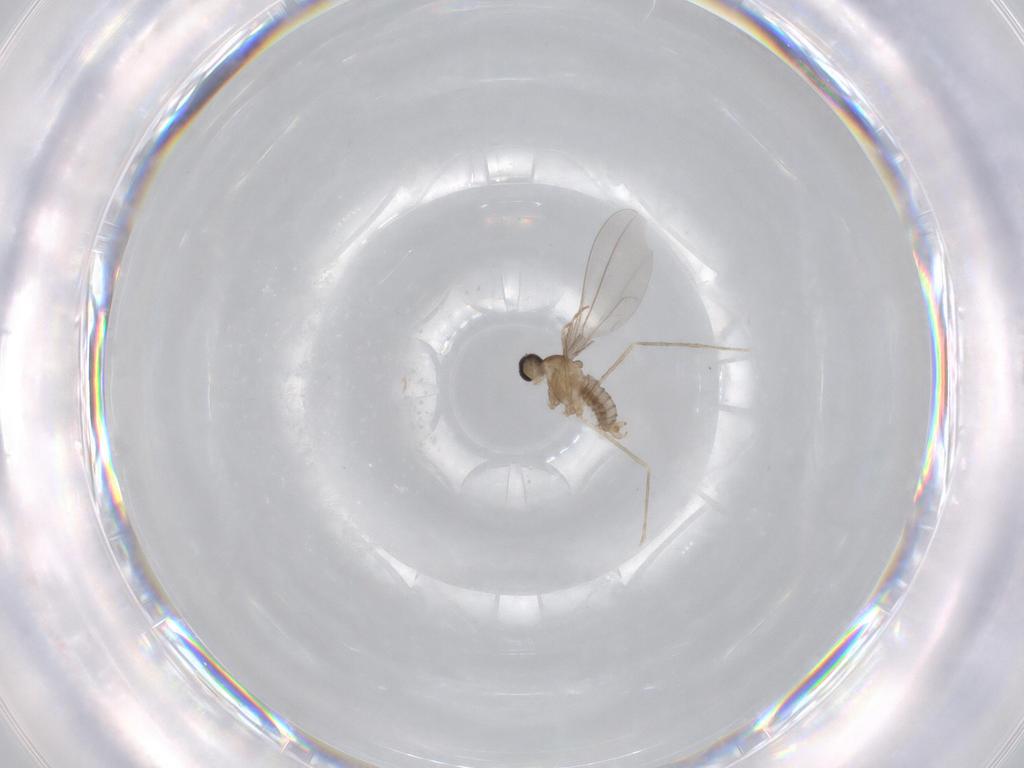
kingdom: Animalia
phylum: Arthropoda
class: Insecta
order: Diptera
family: Cecidomyiidae
